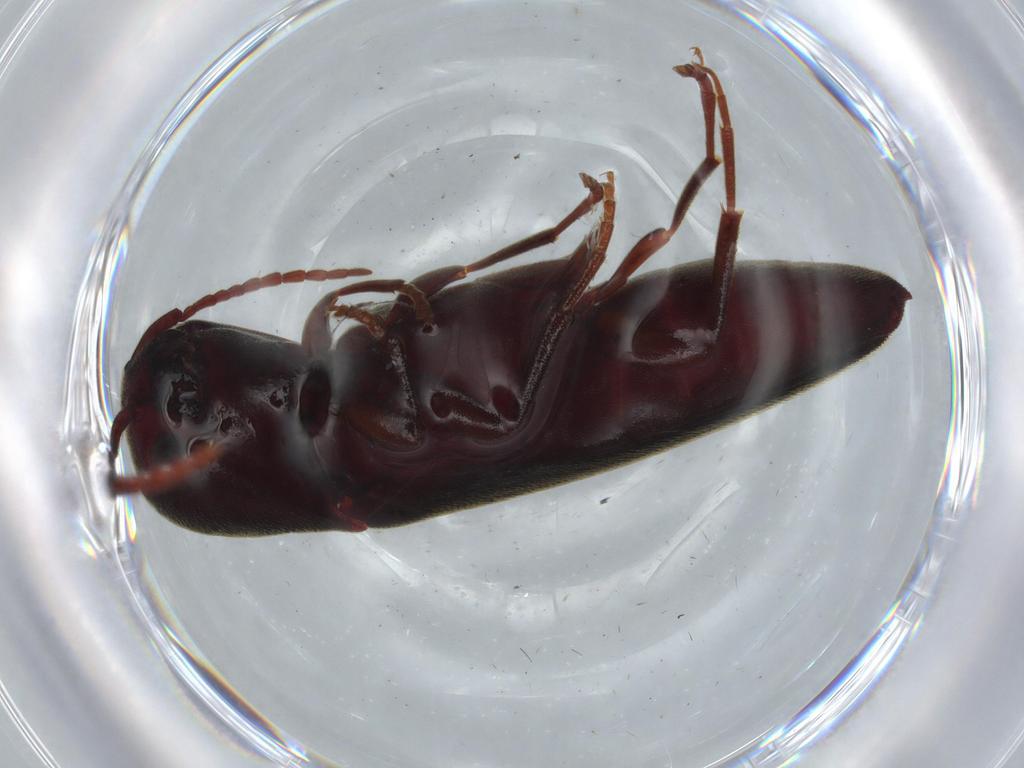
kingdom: Animalia
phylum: Arthropoda
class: Insecta
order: Coleoptera
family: Eucnemidae
